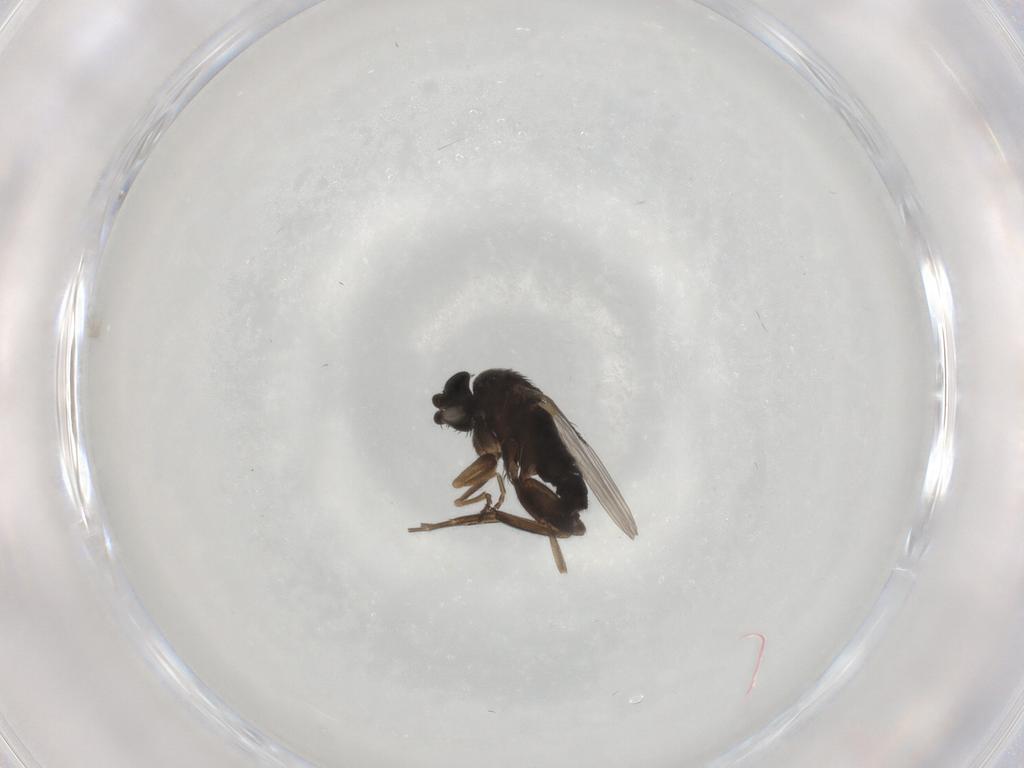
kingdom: Animalia
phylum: Arthropoda
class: Insecta
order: Diptera
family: Phoridae
